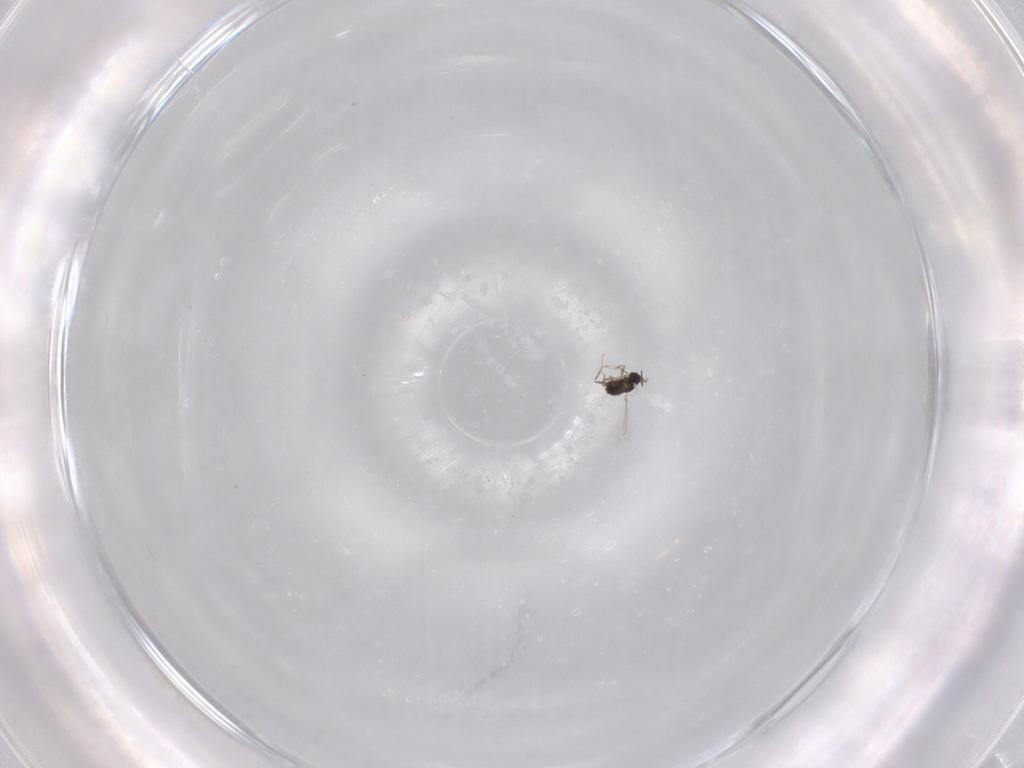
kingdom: Animalia
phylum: Arthropoda
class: Insecta
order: Hymenoptera
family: Mymaridae
